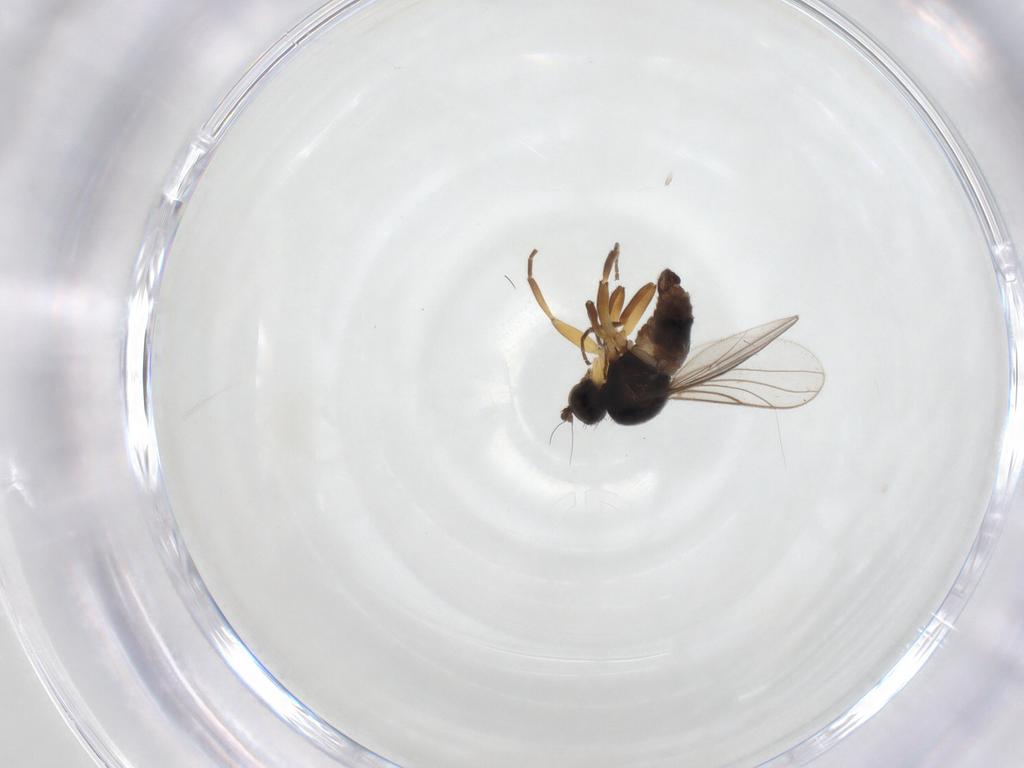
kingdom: Animalia
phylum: Arthropoda
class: Insecta
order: Diptera
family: Hybotidae
